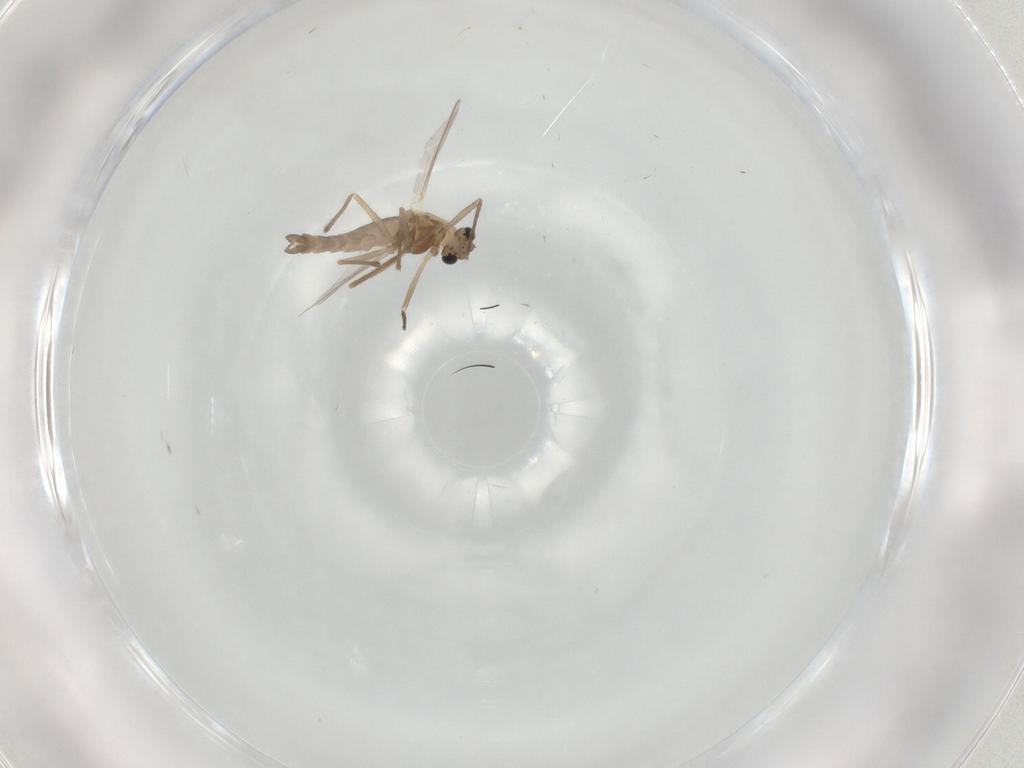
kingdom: Animalia
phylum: Arthropoda
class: Insecta
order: Diptera
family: Chironomidae
